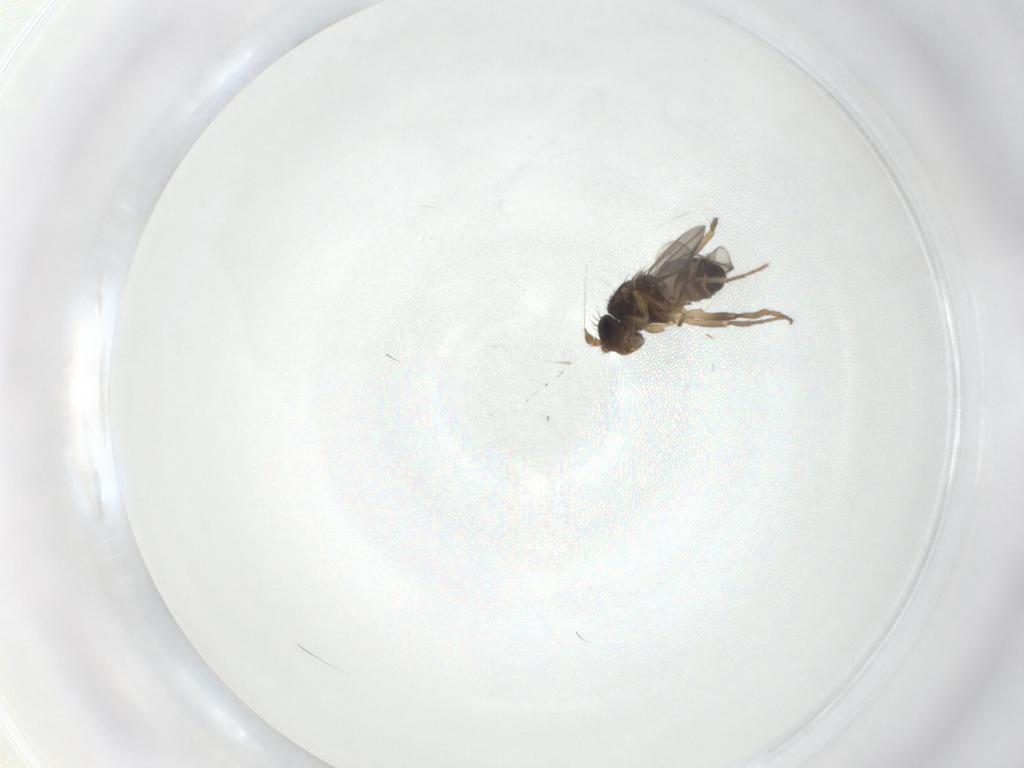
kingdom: Animalia
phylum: Arthropoda
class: Insecta
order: Diptera
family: Sphaeroceridae
